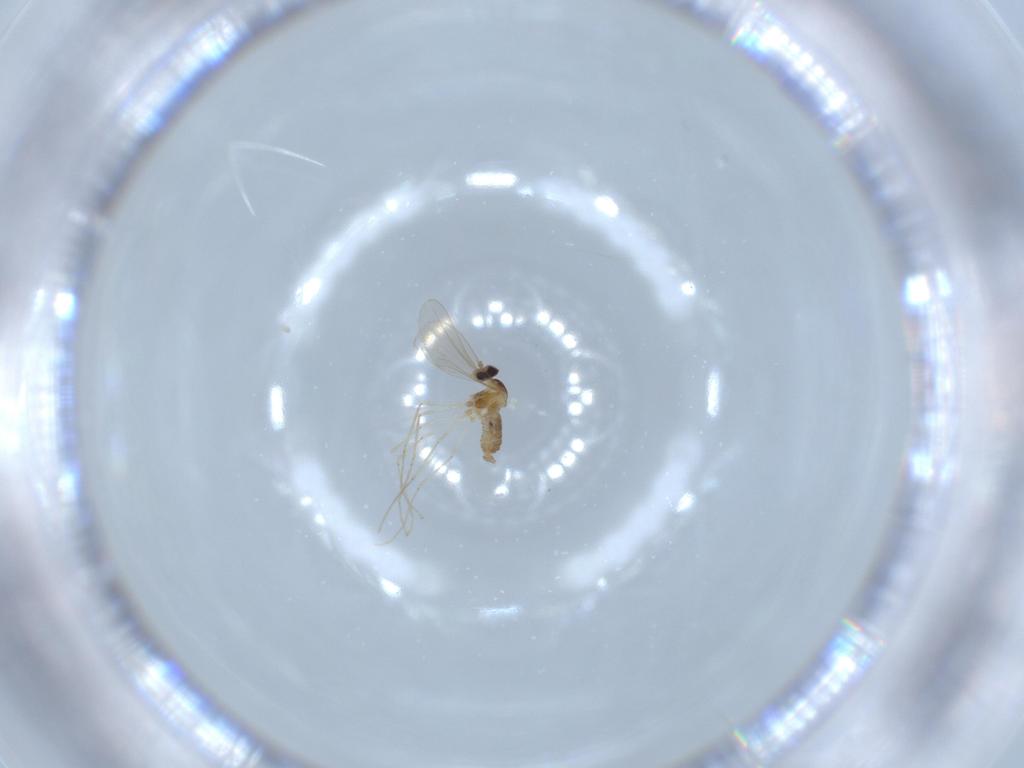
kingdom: Animalia
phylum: Arthropoda
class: Insecta
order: Diptera
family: Cecidomyiidae
